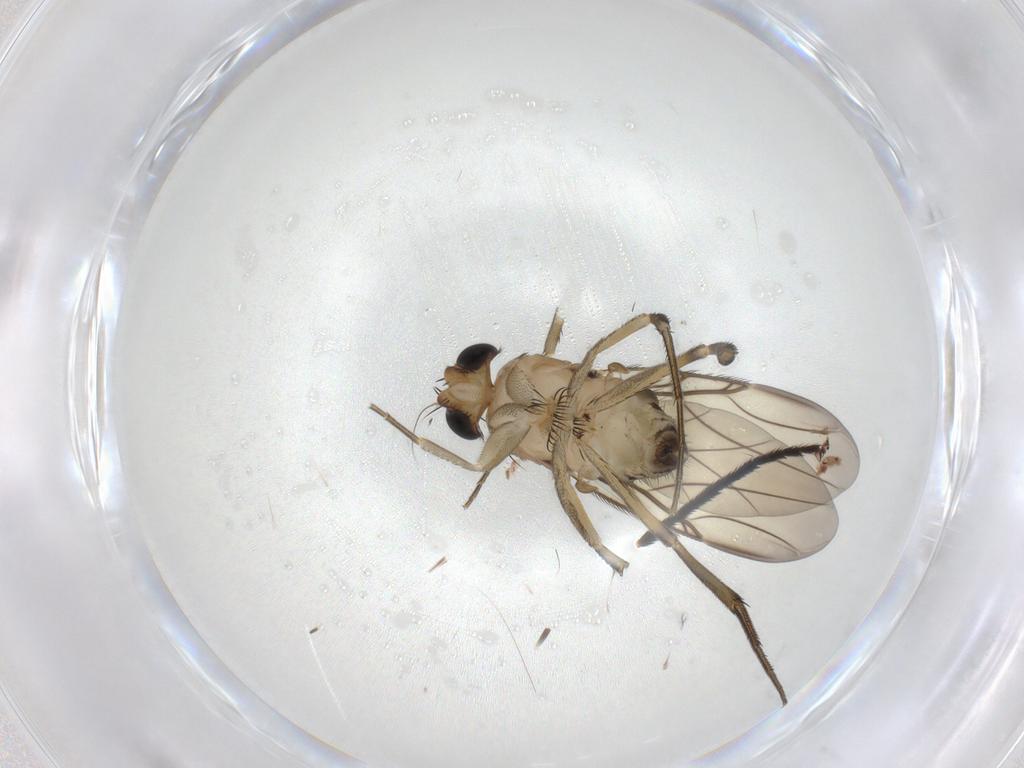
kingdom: Animalia
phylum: Arthropoda
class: Insecta
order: Diptera
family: Phoridae
